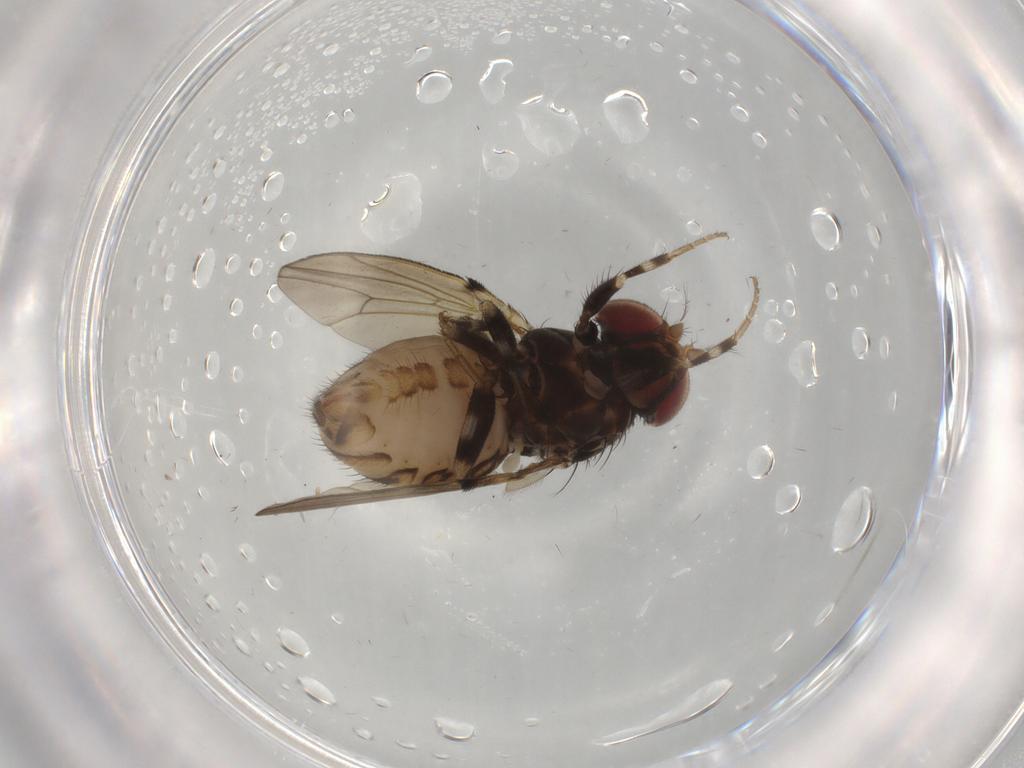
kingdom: Animalia
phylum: Arthropoda
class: Insecta
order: Diptera
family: Drosophilidae
